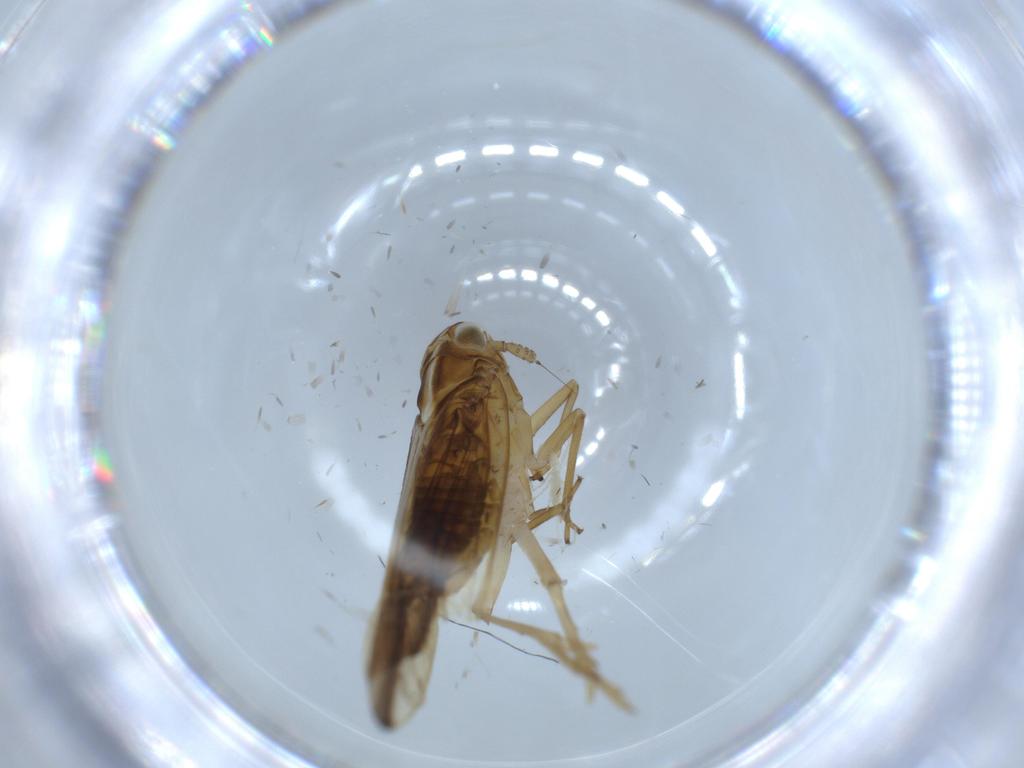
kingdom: Animalia
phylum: Arthropoda
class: Insecta
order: Hemiptera
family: Delphacidae
